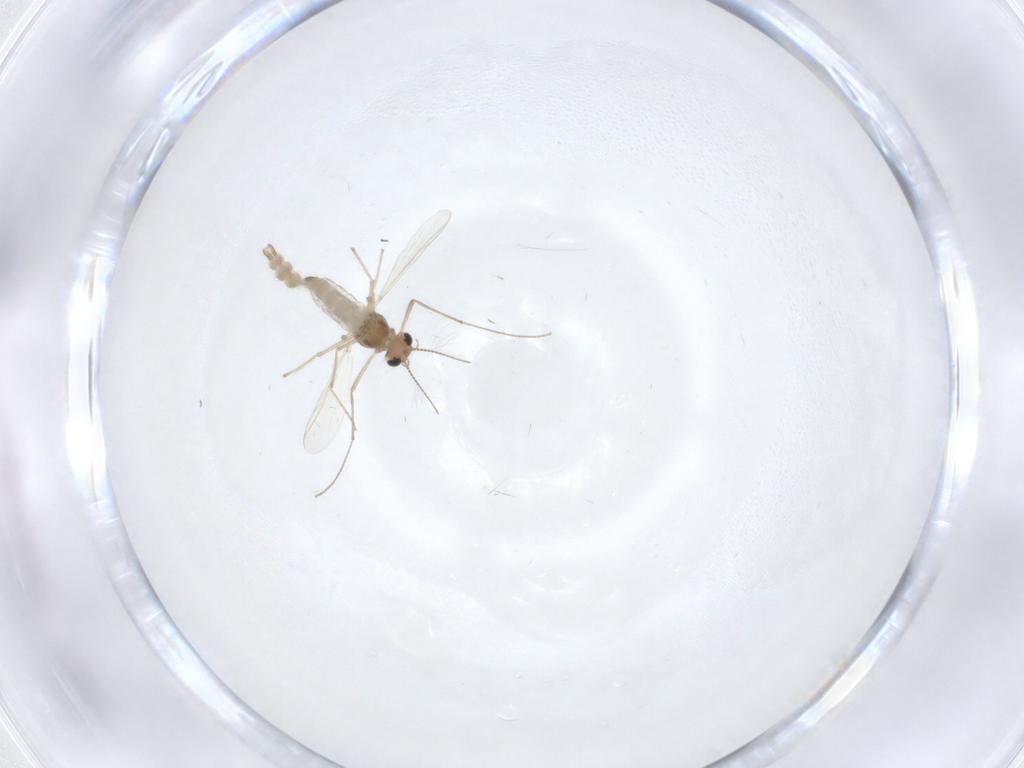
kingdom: Animalia
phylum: Arthropoda
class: Insecta
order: Diptera
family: Chironomidae
